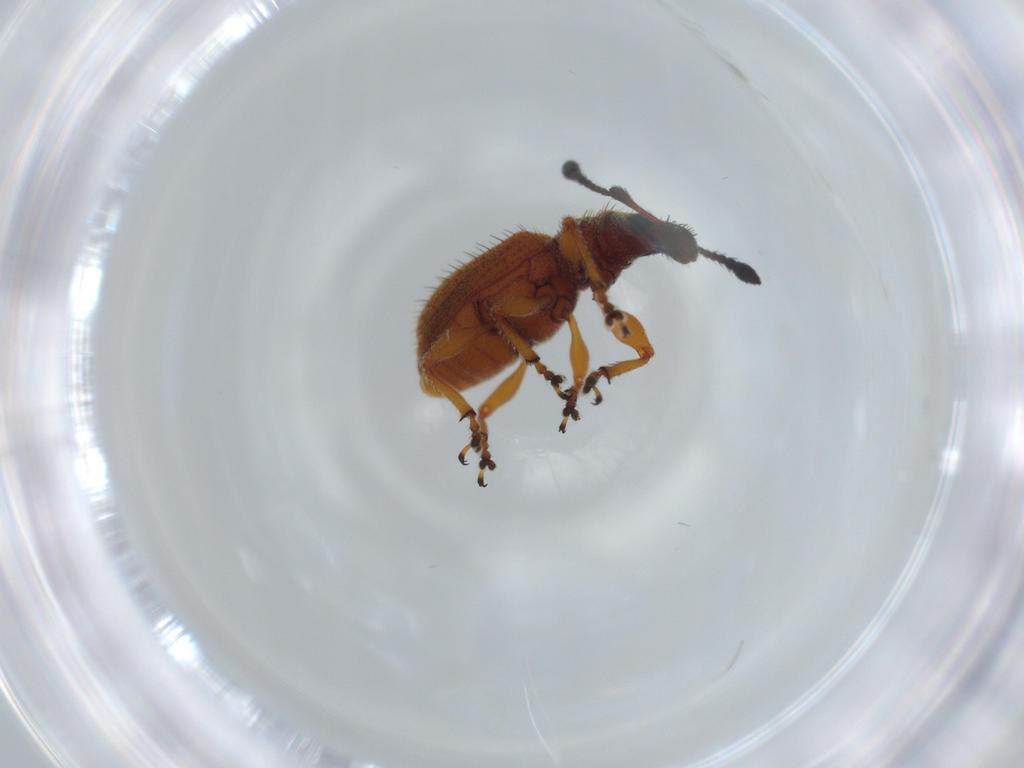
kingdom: Animalia
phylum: Arthropoda
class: Insecta
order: Coleoptera
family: Curculionidae
